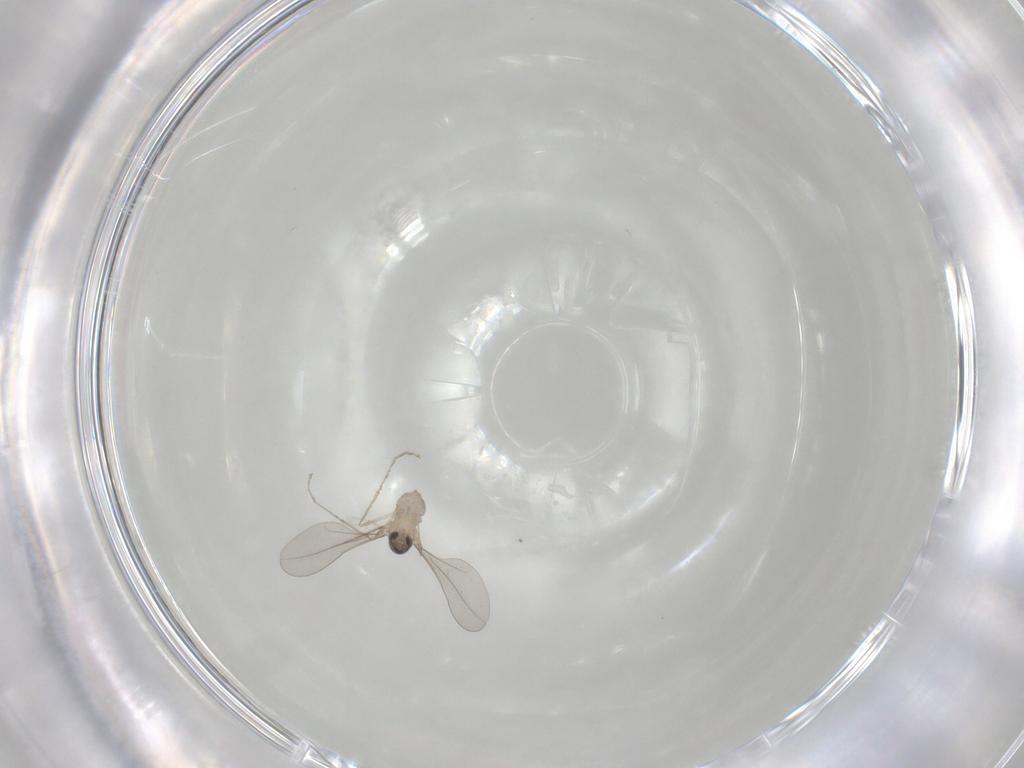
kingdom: Animalia
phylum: Arthropoda
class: Insecta
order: Diptera
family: Cecidomyiidae
